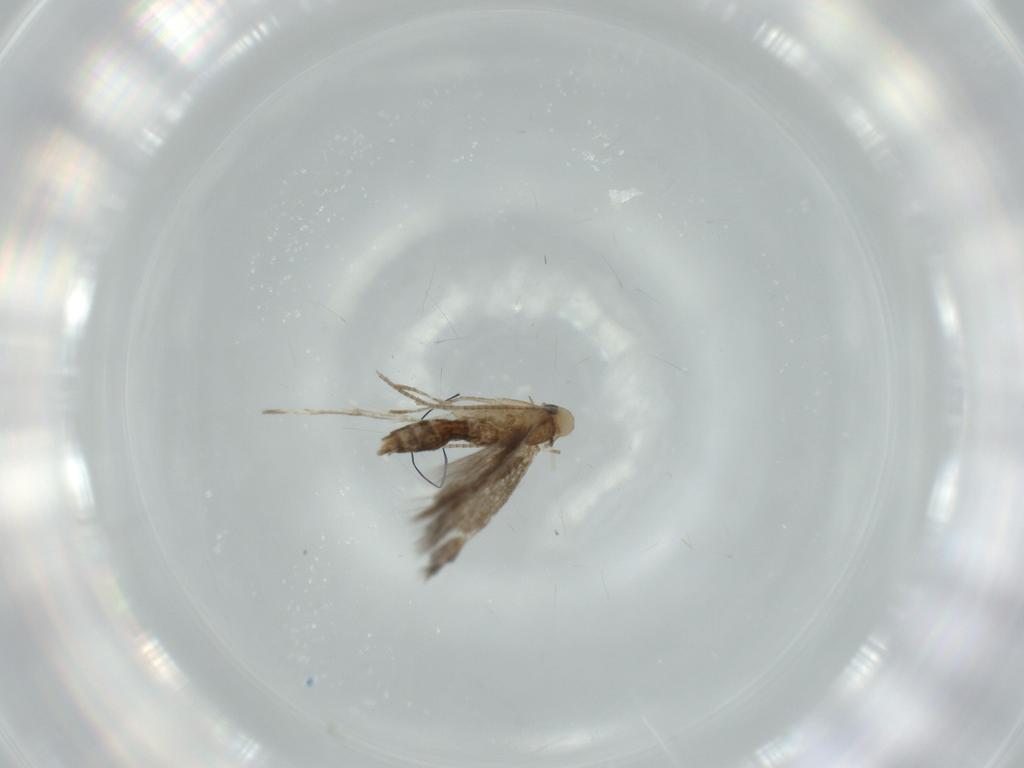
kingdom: Animalia
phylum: Arthropoda
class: Insecta
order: Lepidoptera
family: Nepticulidae
